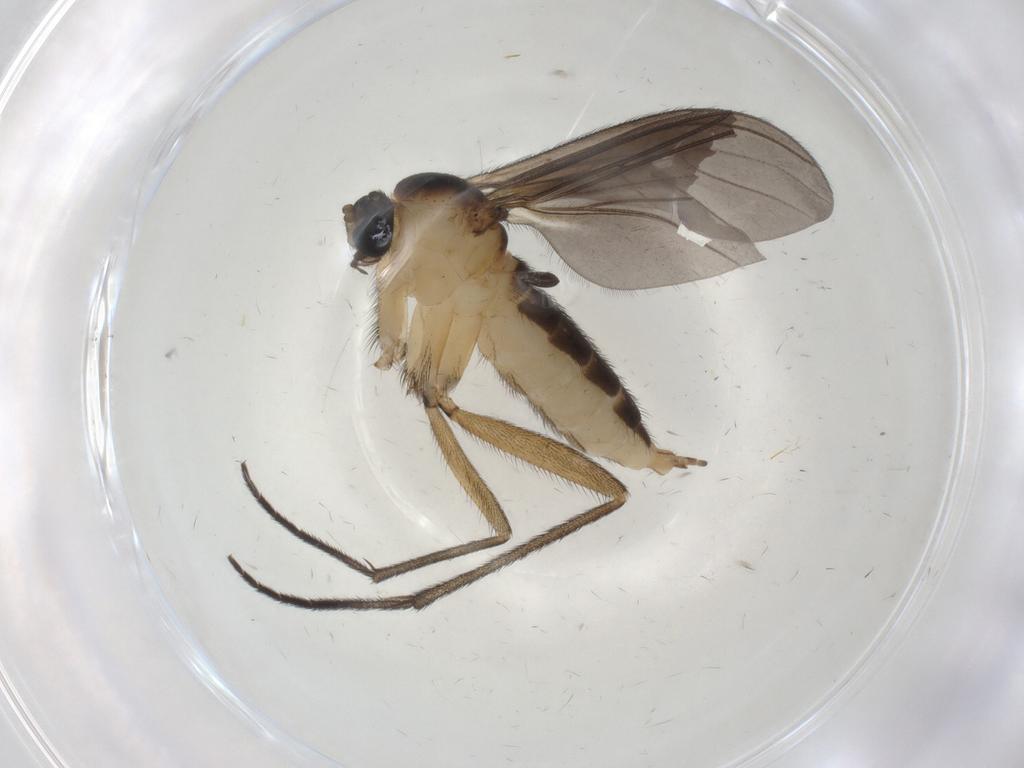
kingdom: Animalia
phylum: Arthropoda
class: Insecta
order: Diptera
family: Sciaridae
